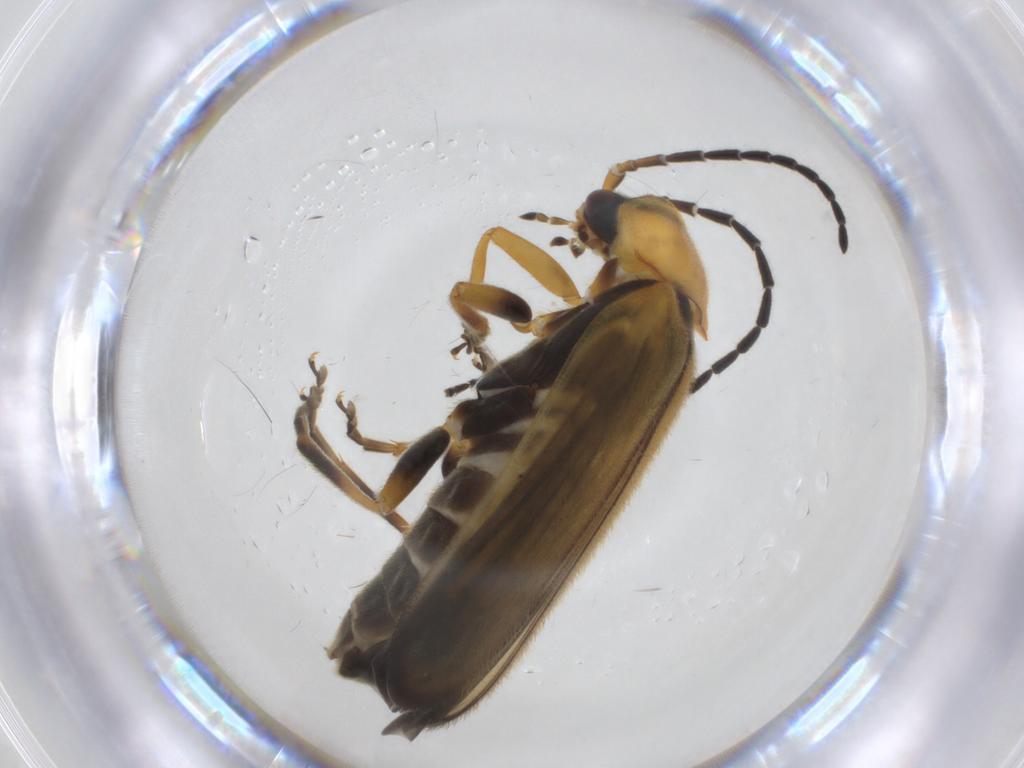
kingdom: Animalia
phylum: Arthropoda
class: Insecta
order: Coleoptera
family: Cantharidae
